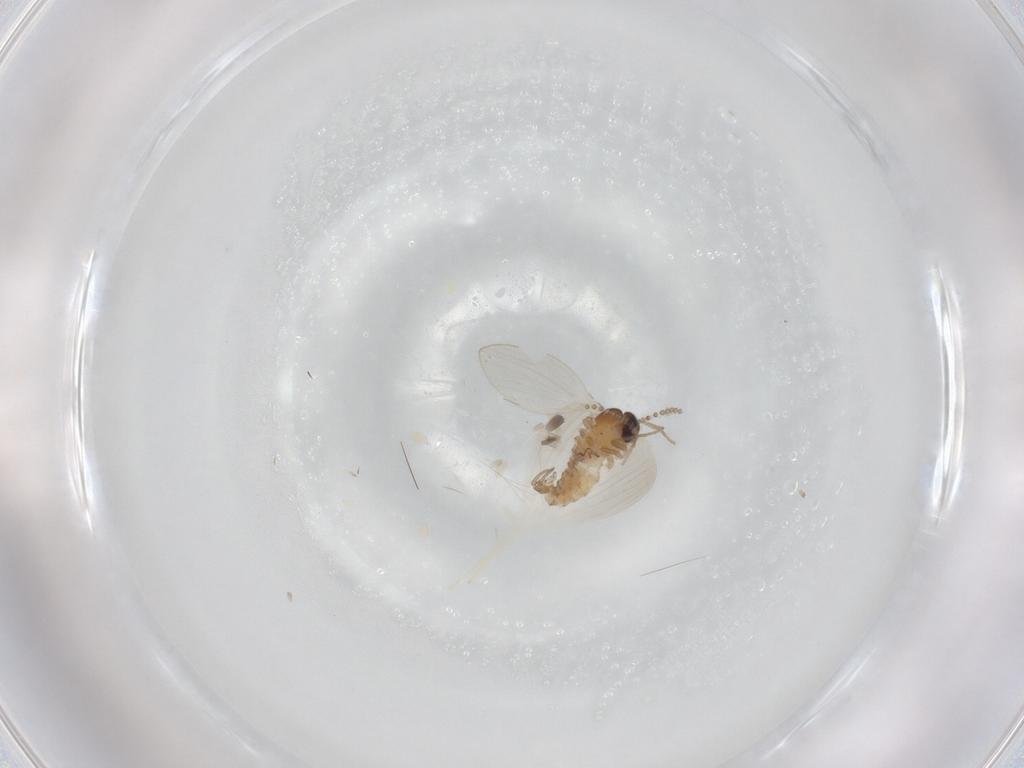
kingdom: Animalia
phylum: Arthropoda
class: Insecta
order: Diptera
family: Psychodidae
